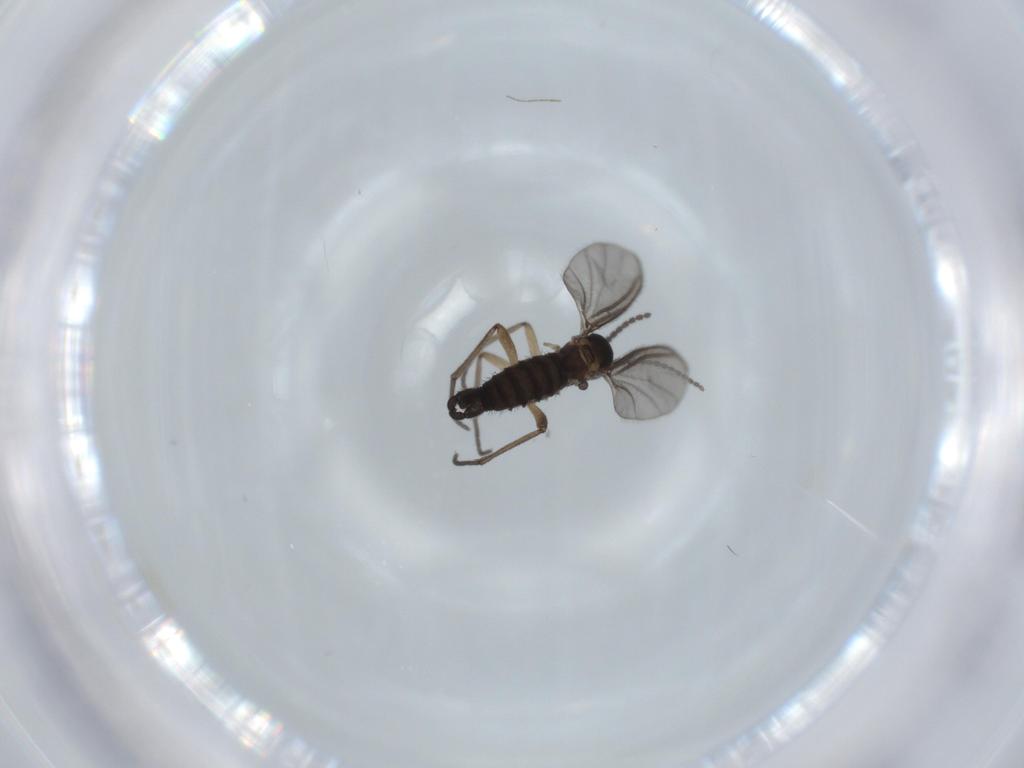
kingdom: Animalia
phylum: Arthropoda
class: Insecta
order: Diptera
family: Sciaridae
